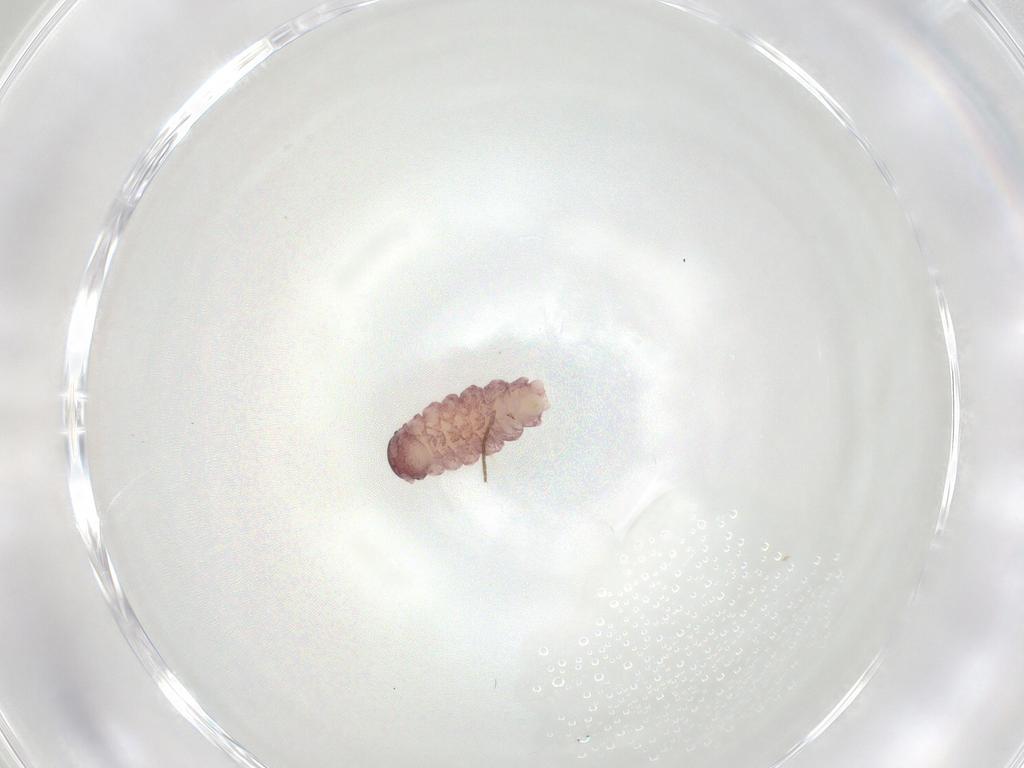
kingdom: Animalia
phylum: Arthropoda
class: Diplopoda
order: Polyxenida
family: Polyxenidae
